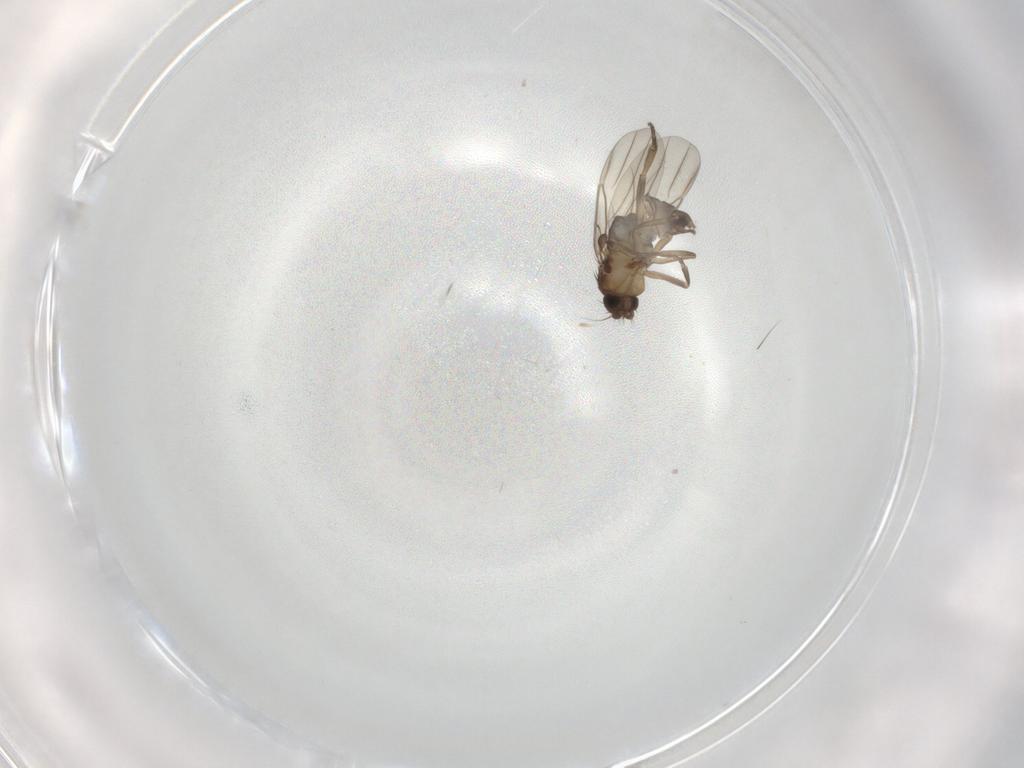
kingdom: Animalia
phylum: Arthropoda
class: Insecta
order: Diptera
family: Phoridae
